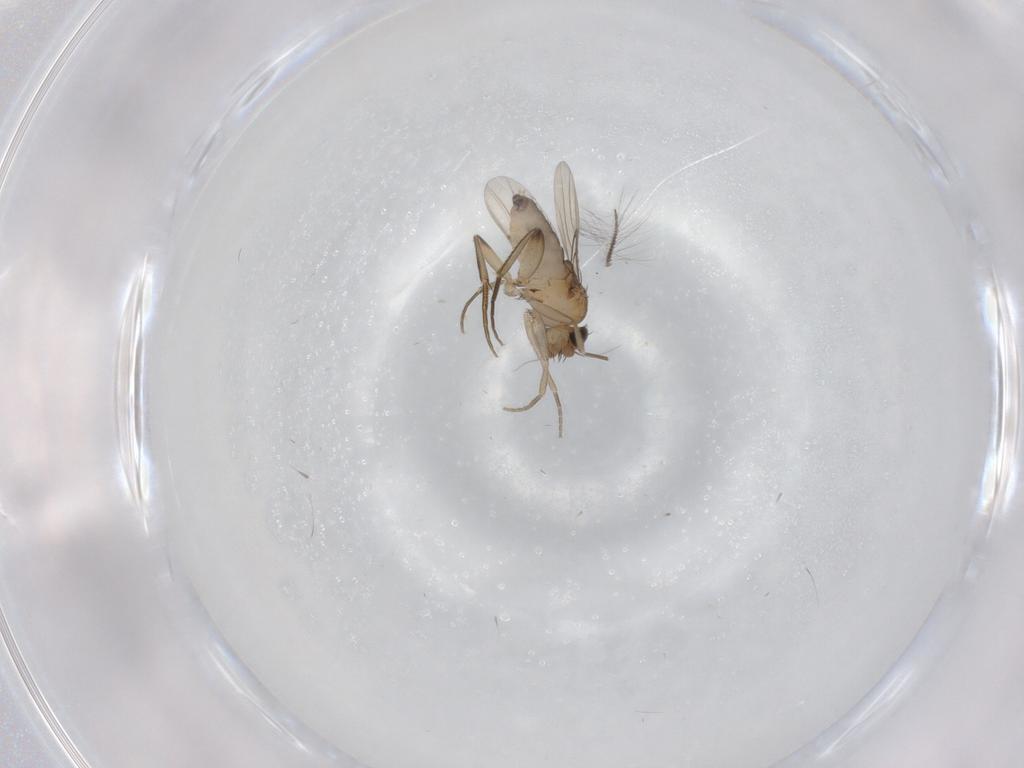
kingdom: Animalia
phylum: Arthropoda
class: Insecta
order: Diptera
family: Phoridae
